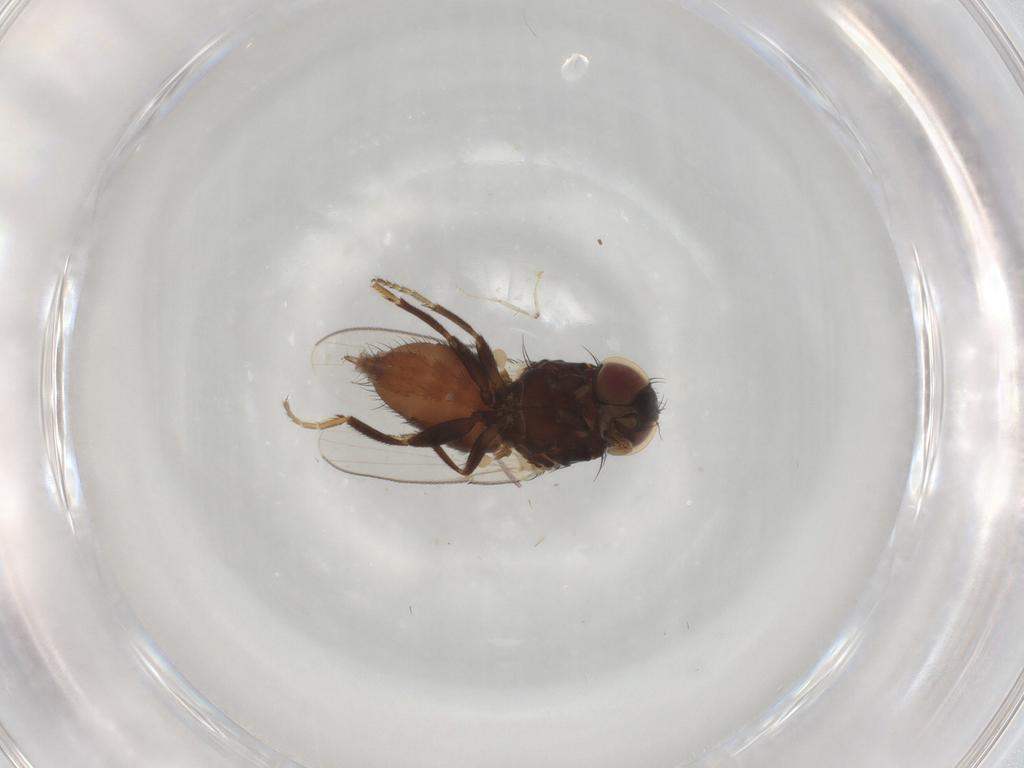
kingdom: Animalia
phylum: Arthropoda
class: Insecta
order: Diptera
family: Milichiidae
